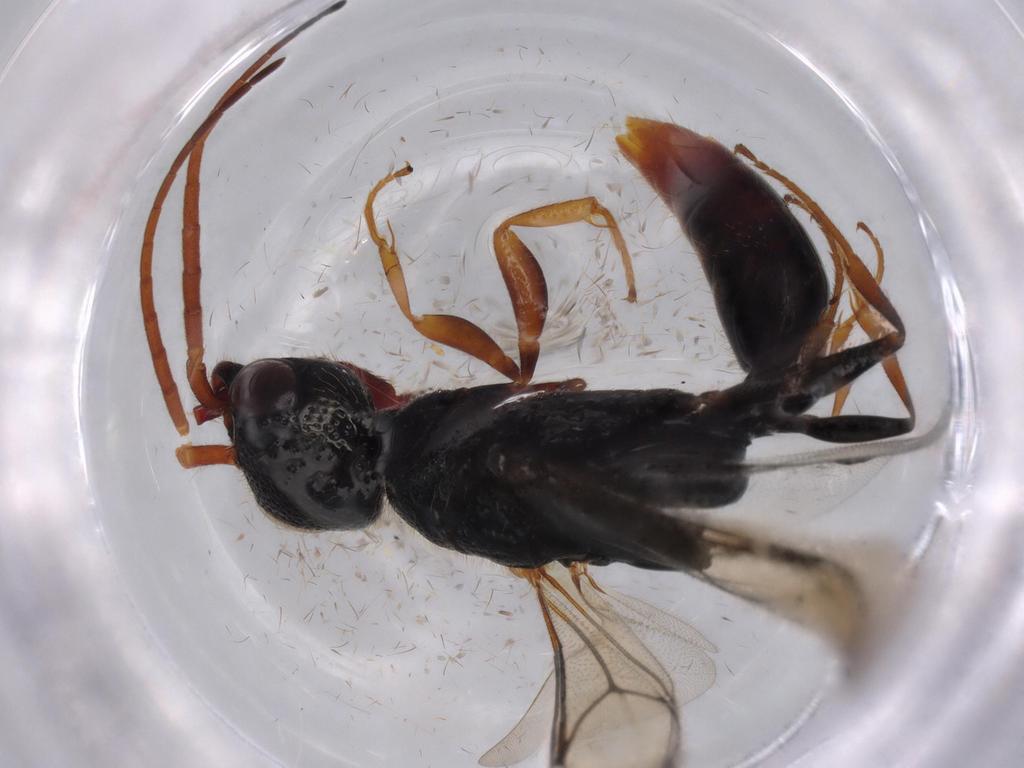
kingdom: Animalia
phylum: Arthropoda
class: Insecta
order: Hymenoptera
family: Bethylidae
